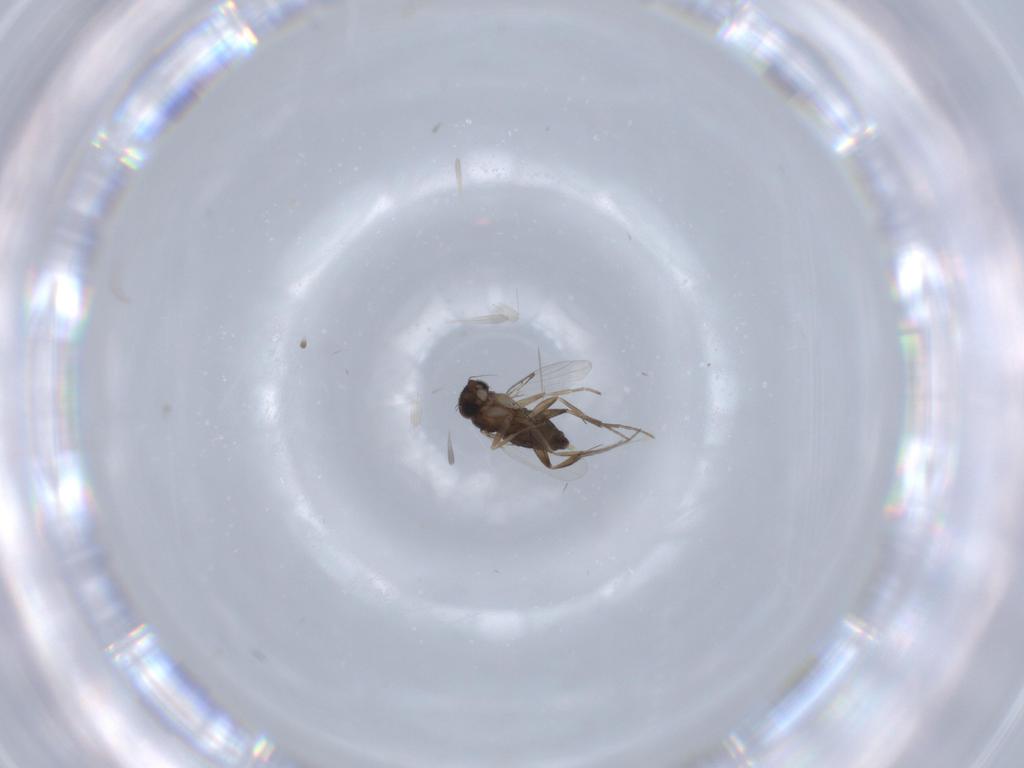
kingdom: Animalia
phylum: Arthropoda
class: Insecta
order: Diptera
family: Phoridae
